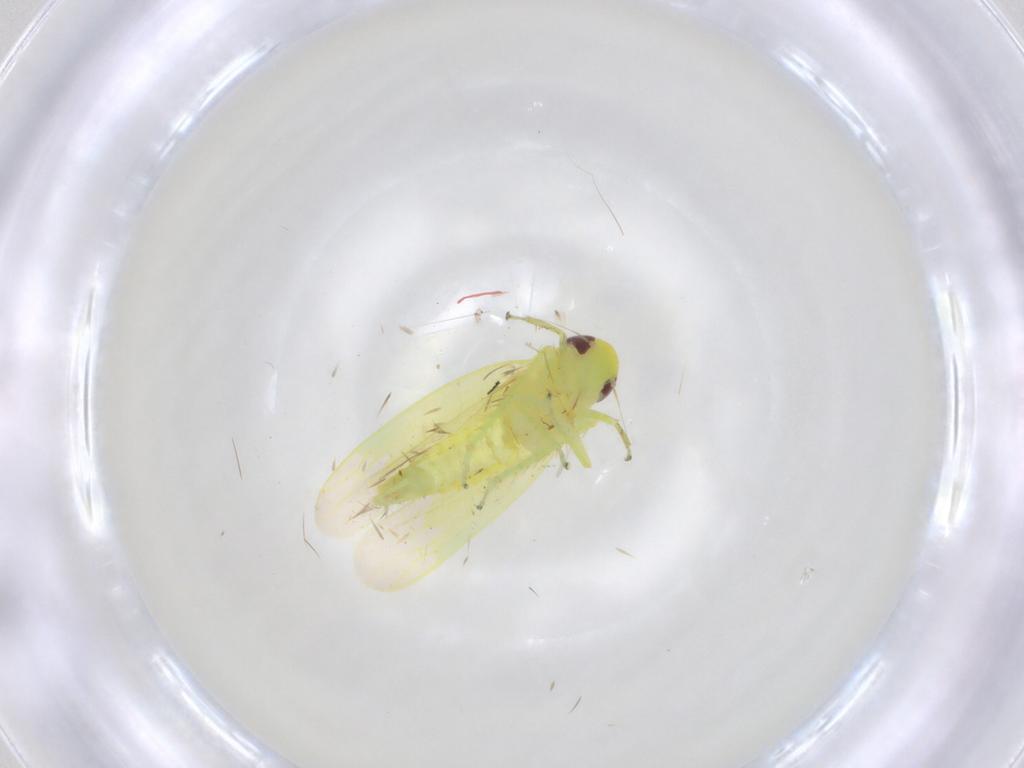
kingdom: Animalia
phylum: Arthropoda
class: Insecta
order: Hemiptera
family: Cicadellidae
